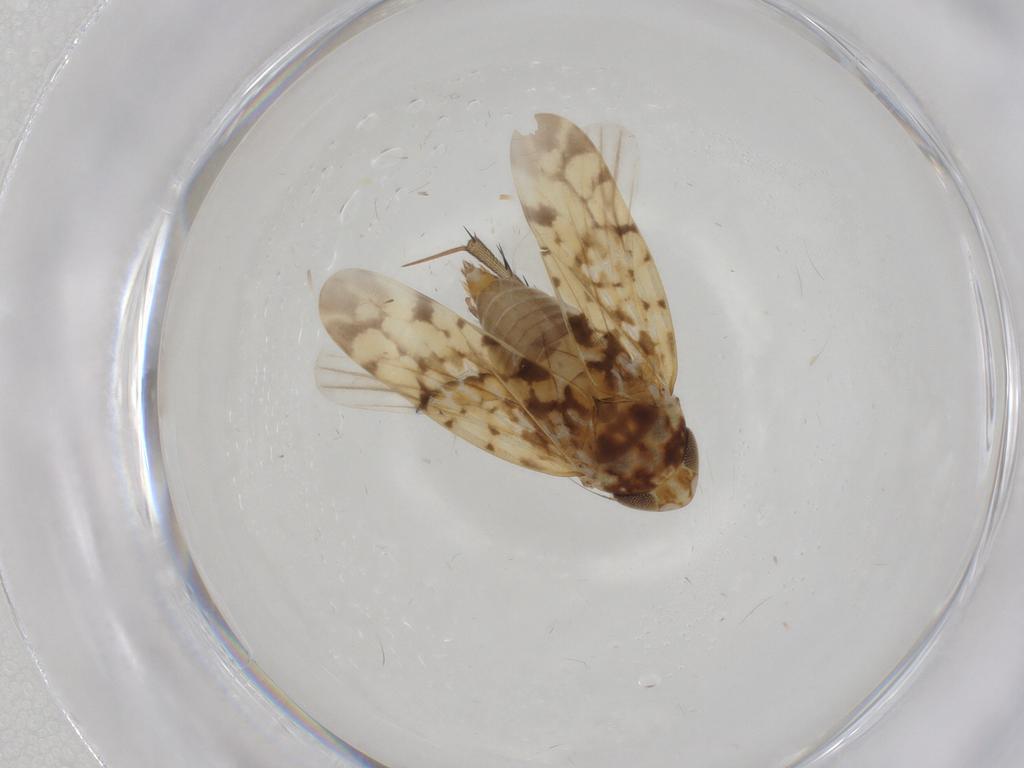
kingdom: Animalia
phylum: Arthropoda
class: Insecta
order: Hemiptera
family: Cicadellidae
